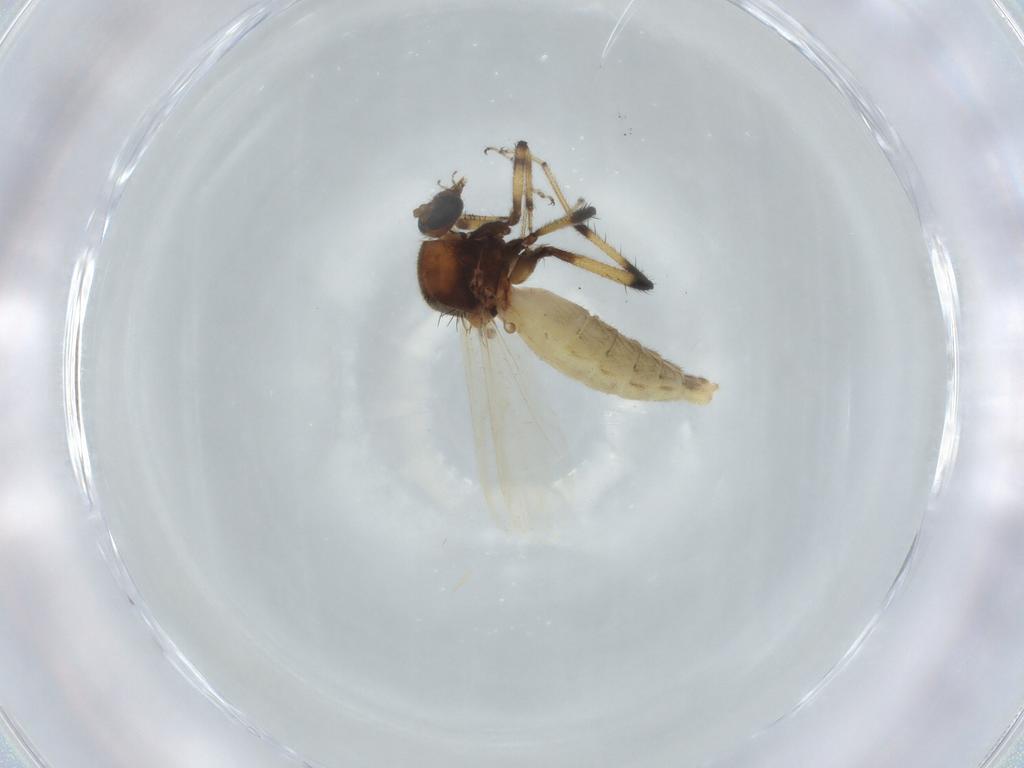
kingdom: Animalia
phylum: Arthropoda
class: Insecta
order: Diptera
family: Ceratopogonidae
